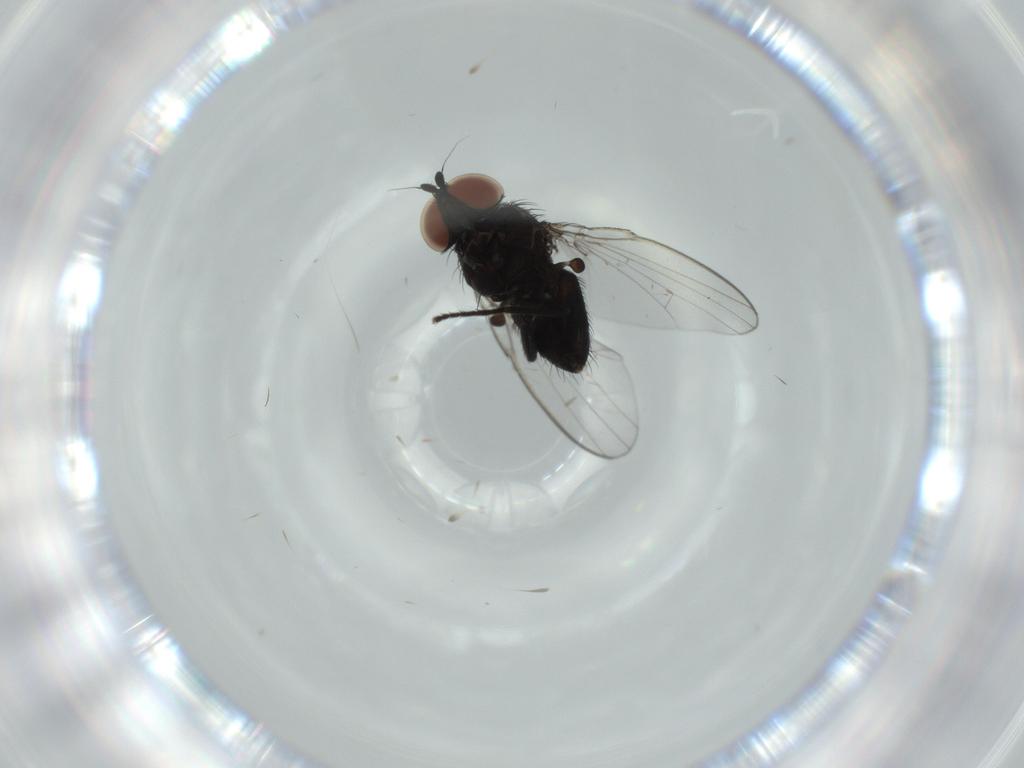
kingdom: Animalia
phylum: Arthropoda
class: Insecta
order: Diptera
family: Milichiidae
